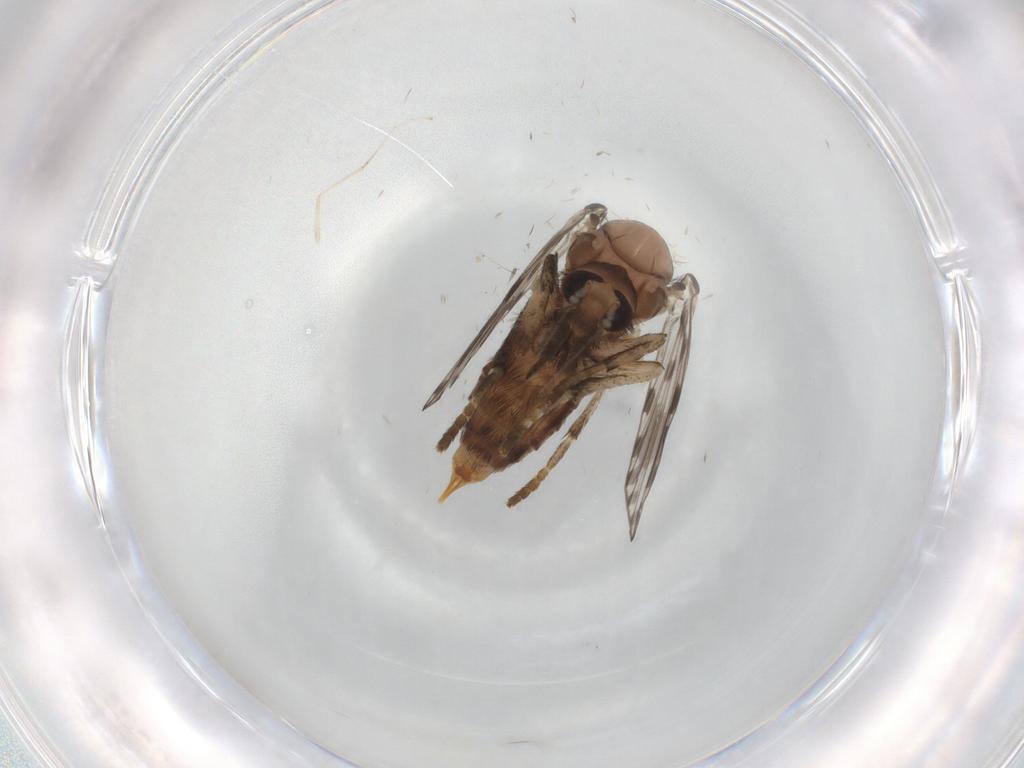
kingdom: Animalia
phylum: Arthropoda
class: Insecta
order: Diptera
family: Psychodidae
